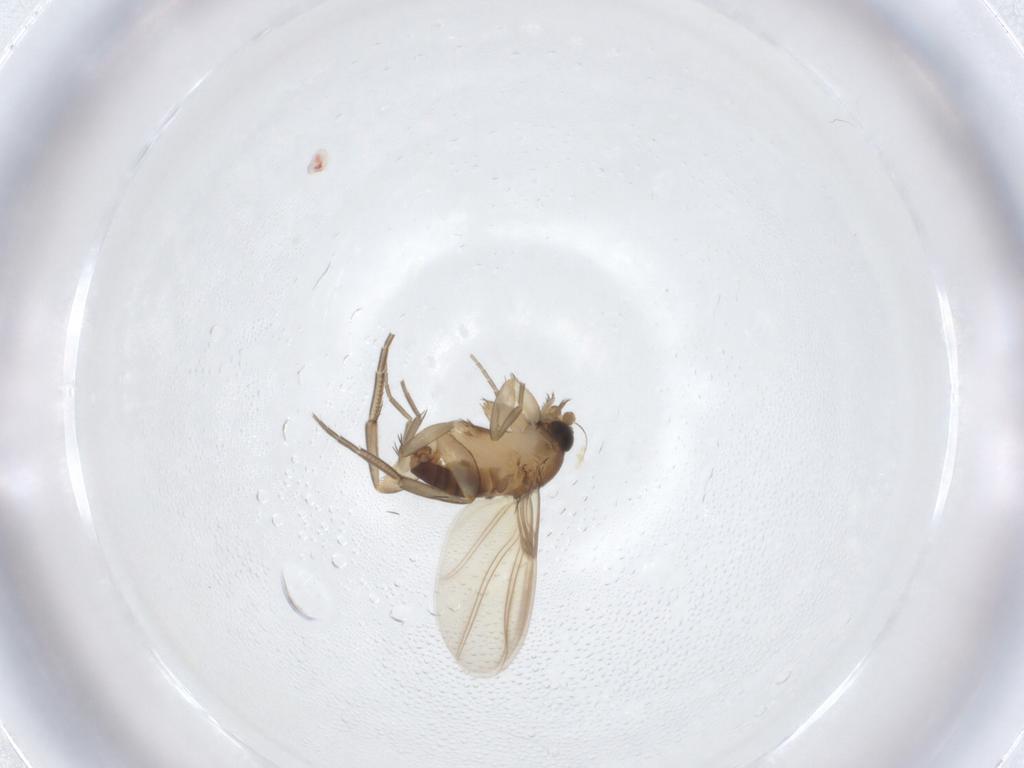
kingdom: Animalia
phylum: Arthropoda
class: Insecta
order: Diptera
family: Phoridae
